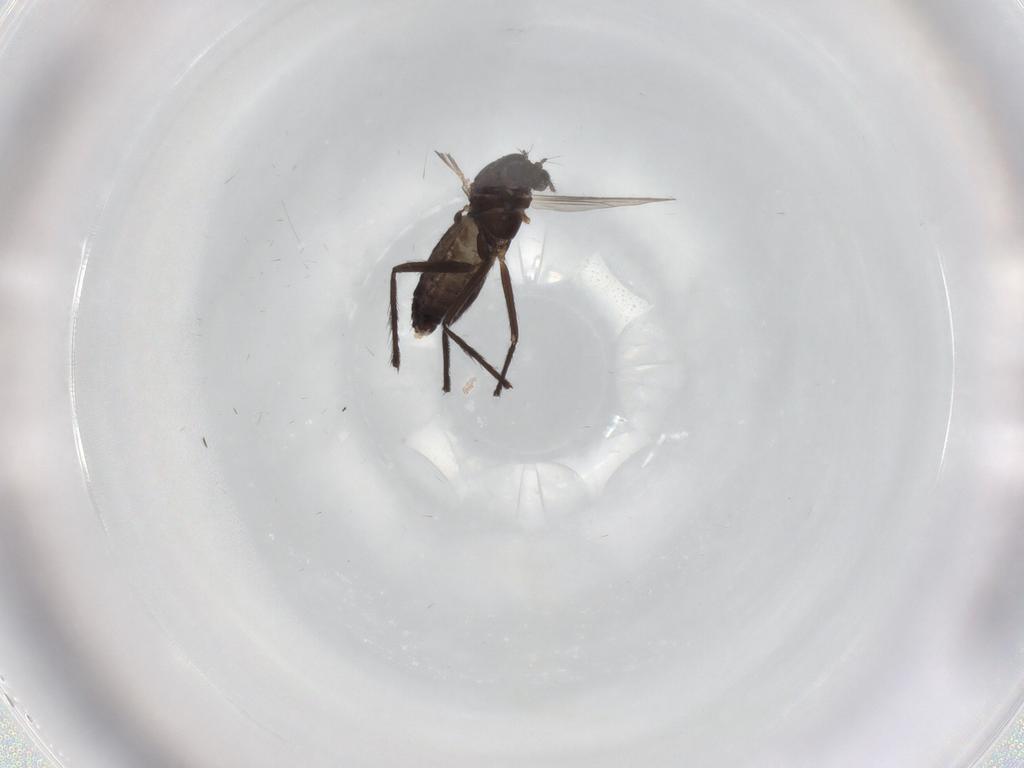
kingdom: Animalia
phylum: Arthropoda
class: Insecta
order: Diptera
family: Chironomidae
